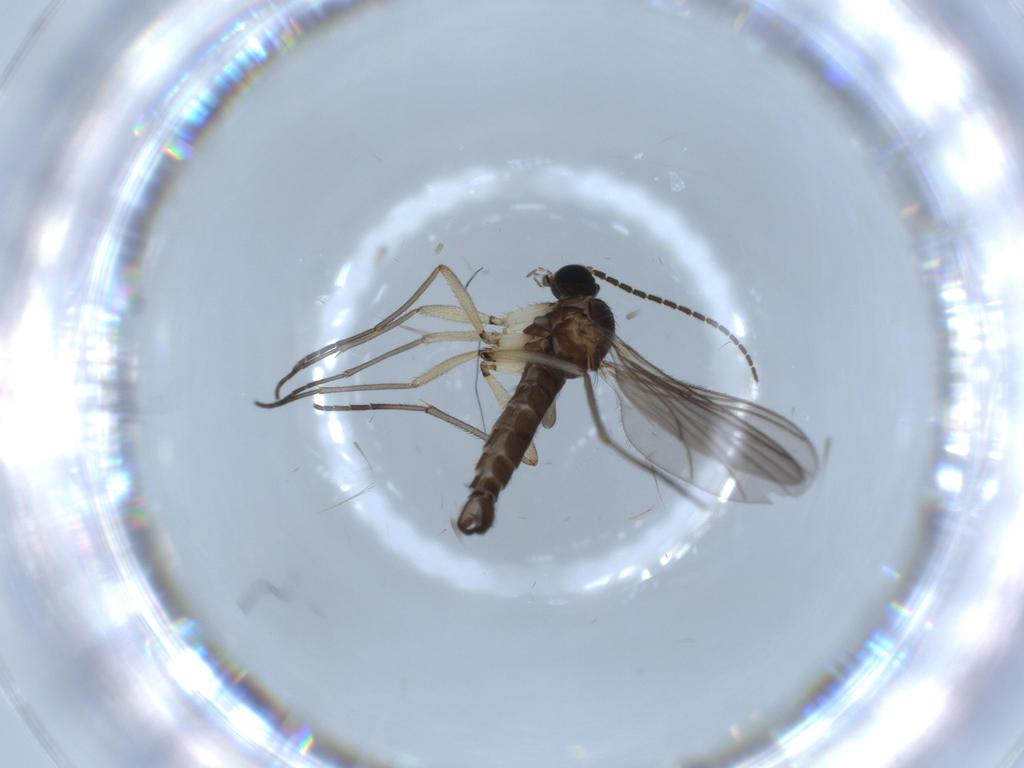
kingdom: Animalia
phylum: Arthropoda
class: Insecta
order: Diptera
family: Sciaridae
